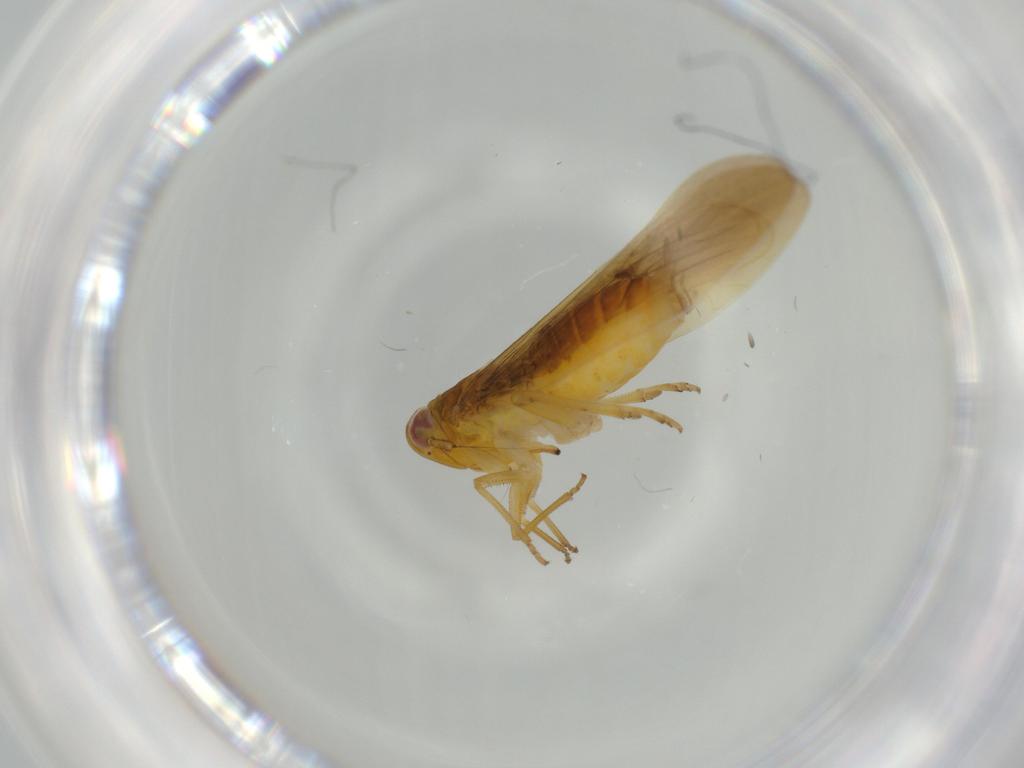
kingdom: Animalia
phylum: Arthropoda
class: Insecta
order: Hemiptera
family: Delphacidae
